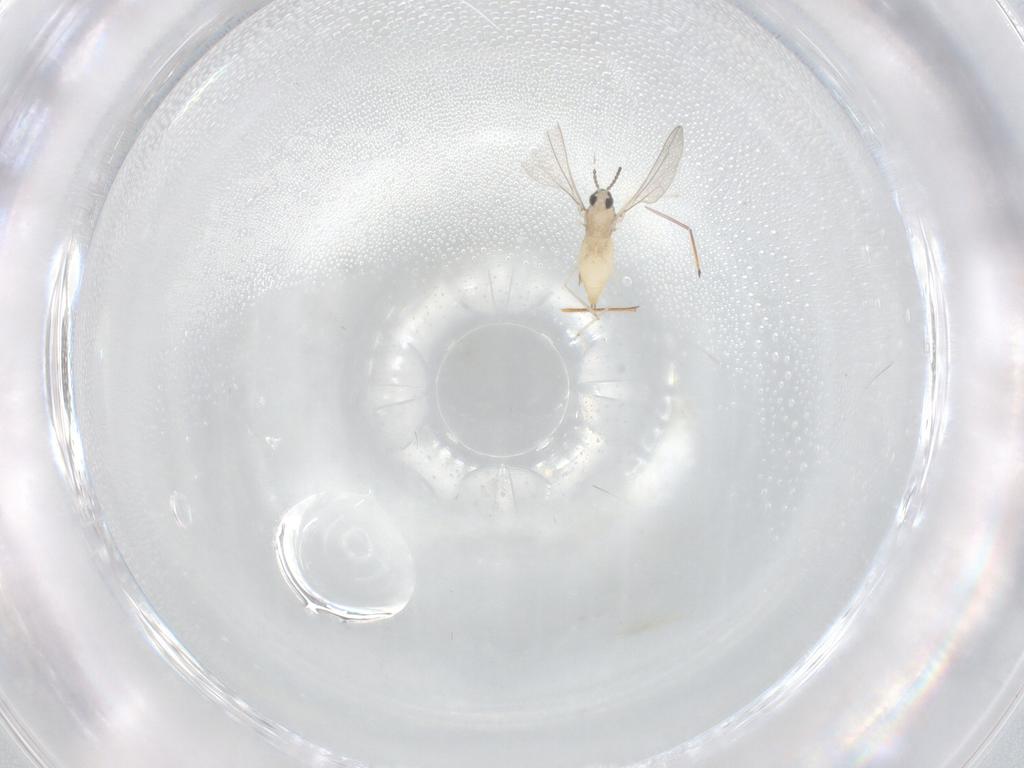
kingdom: Animalia
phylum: Arthropoda
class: Insecta
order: Diptera
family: Cecidomyiidae
